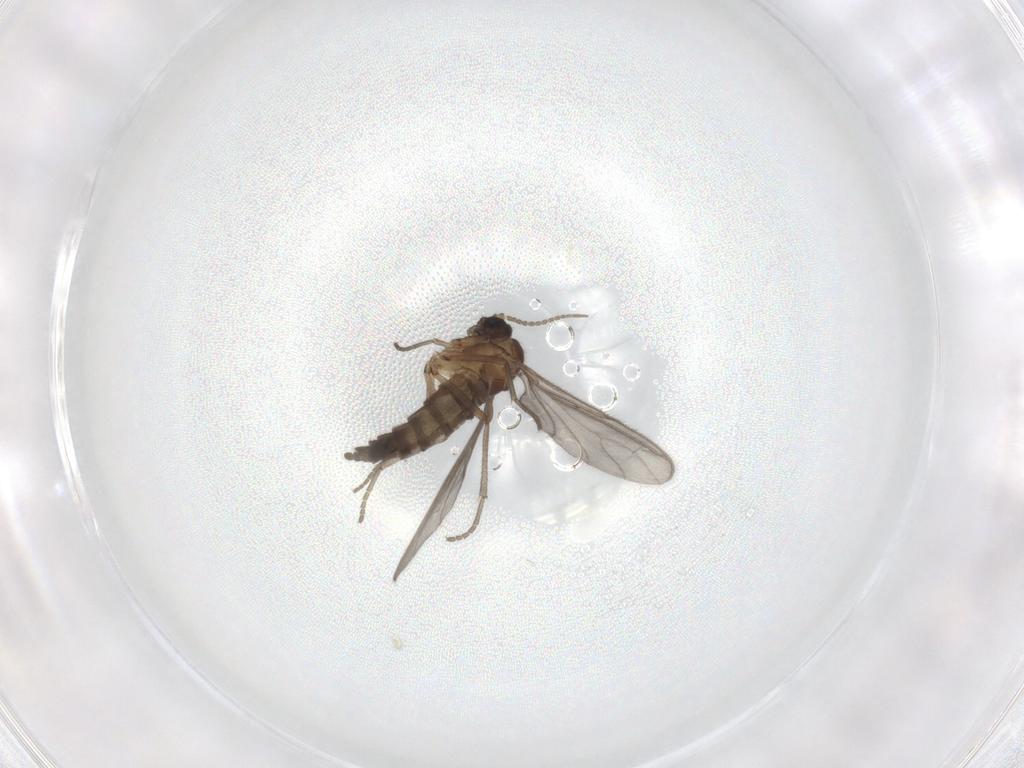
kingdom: Animalia
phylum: Arthropoda
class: Insecta
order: Diptera
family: Sciaridae
